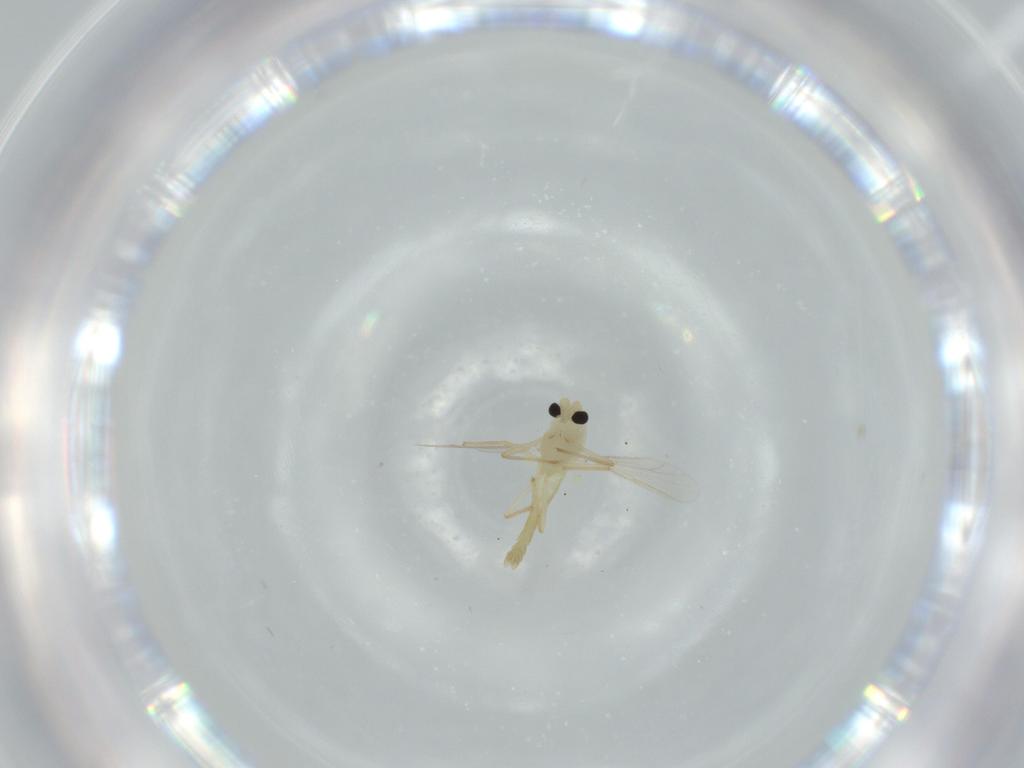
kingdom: Animalia
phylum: Arthropoda
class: Insecta
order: Diptera
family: Chironomidae
